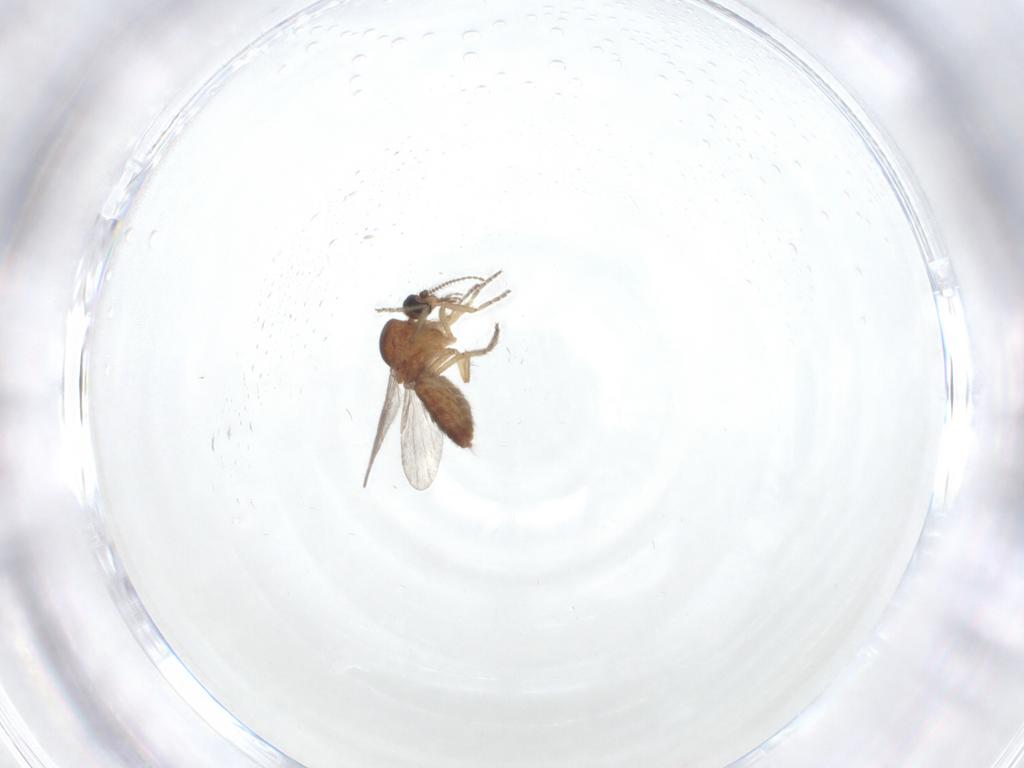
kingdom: Animalia
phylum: Arthropoda
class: Insecta
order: Diptera
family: Ceratopogonidae
